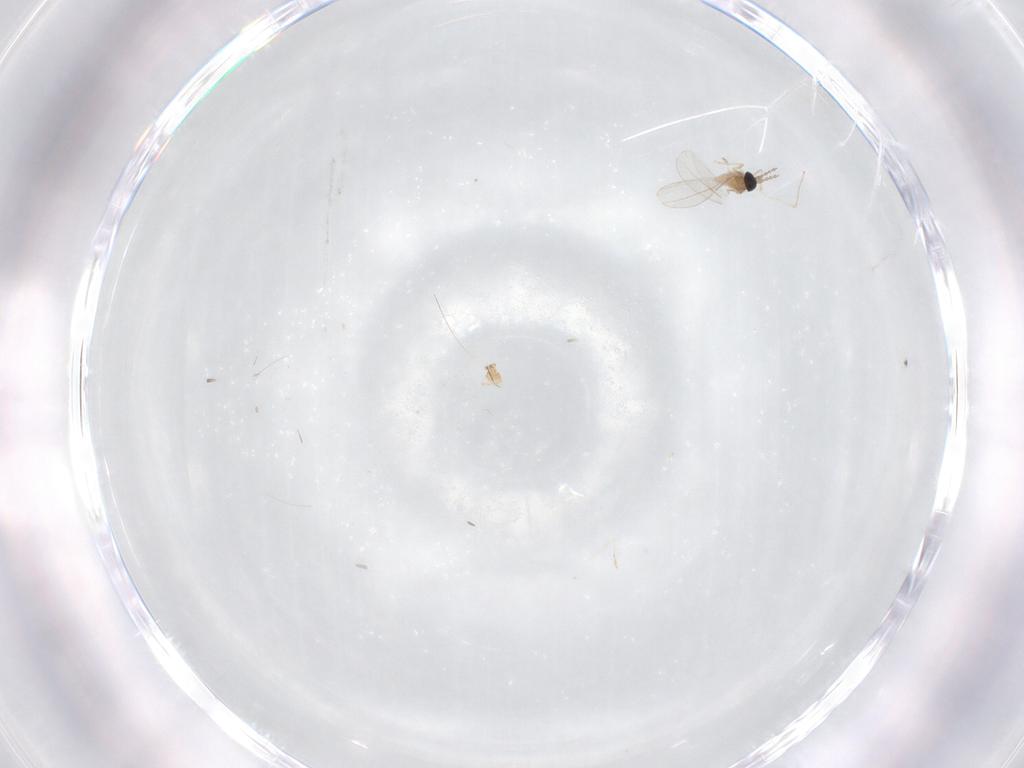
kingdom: Animalia
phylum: Arthropoda
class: Insecta
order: Diptera
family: Cecidomyiidae
